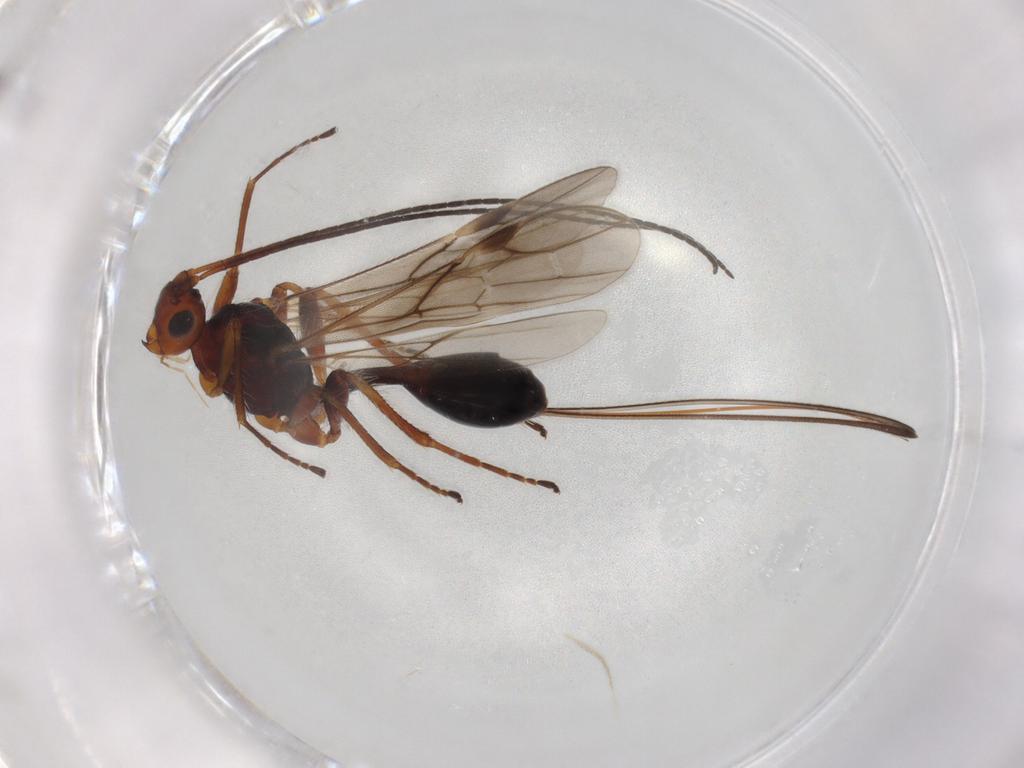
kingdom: Animalia
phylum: Arthropoda
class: Insecta
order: Hymenoptera
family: Braconidae
